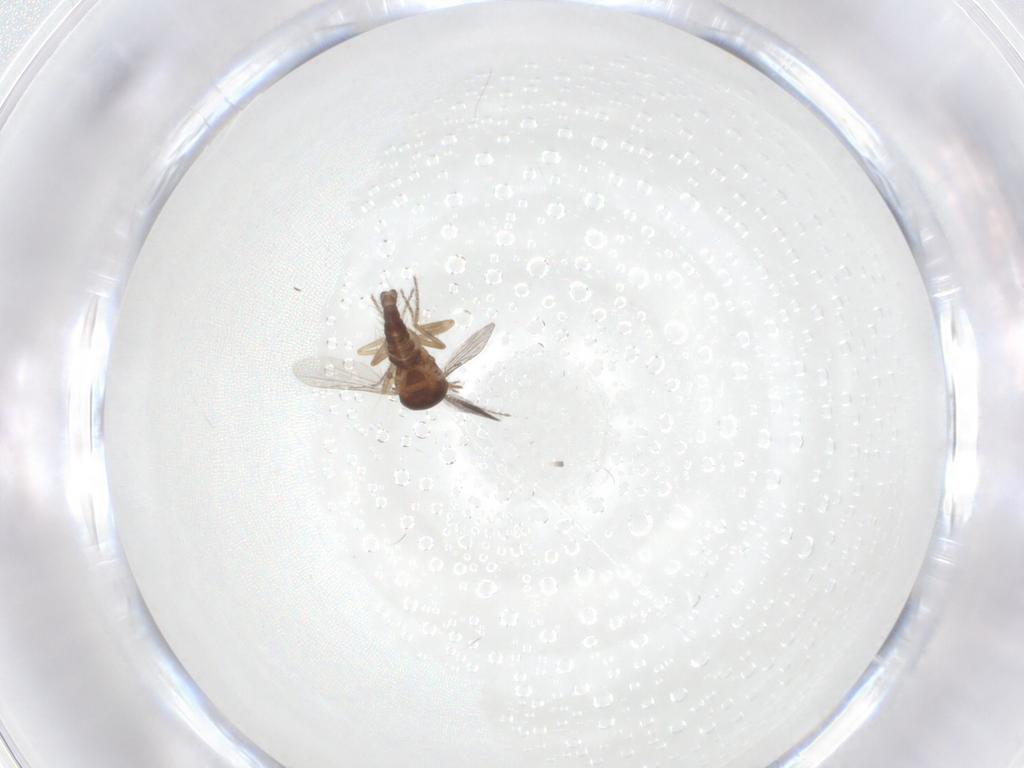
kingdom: Animalia
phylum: Arthropoda
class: Insecta
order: Diptera
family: Ceratopogonidae
